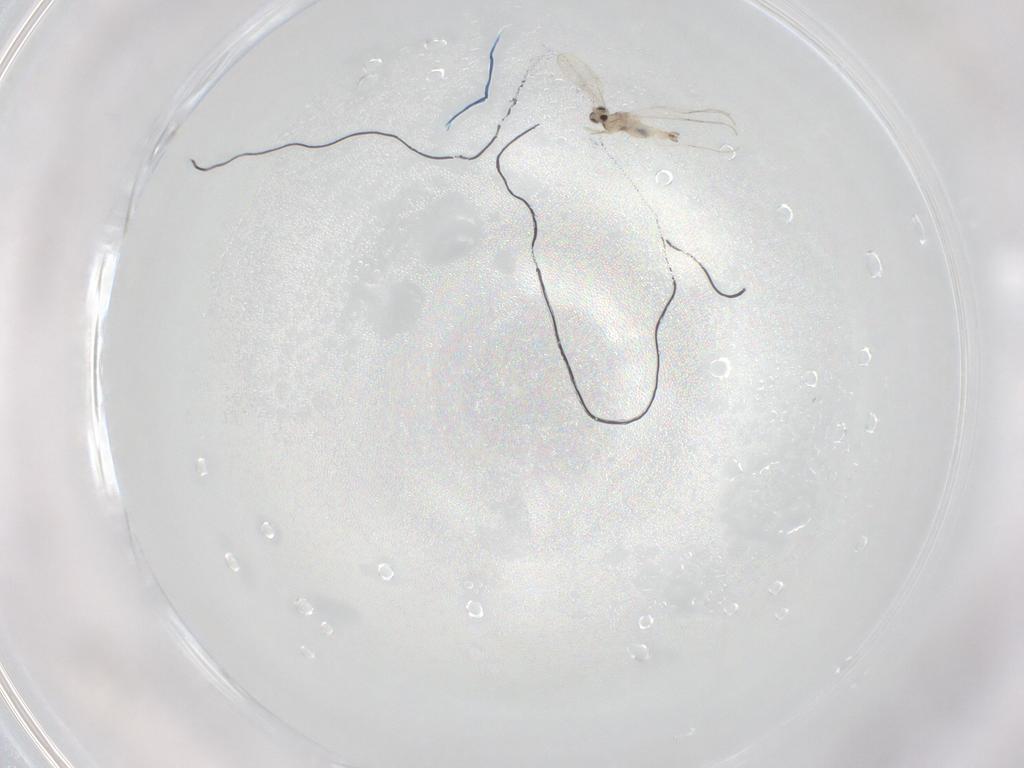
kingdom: Animalia
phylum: Arthropoda
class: Insecta
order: Diptera
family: Cecidomyiidae
